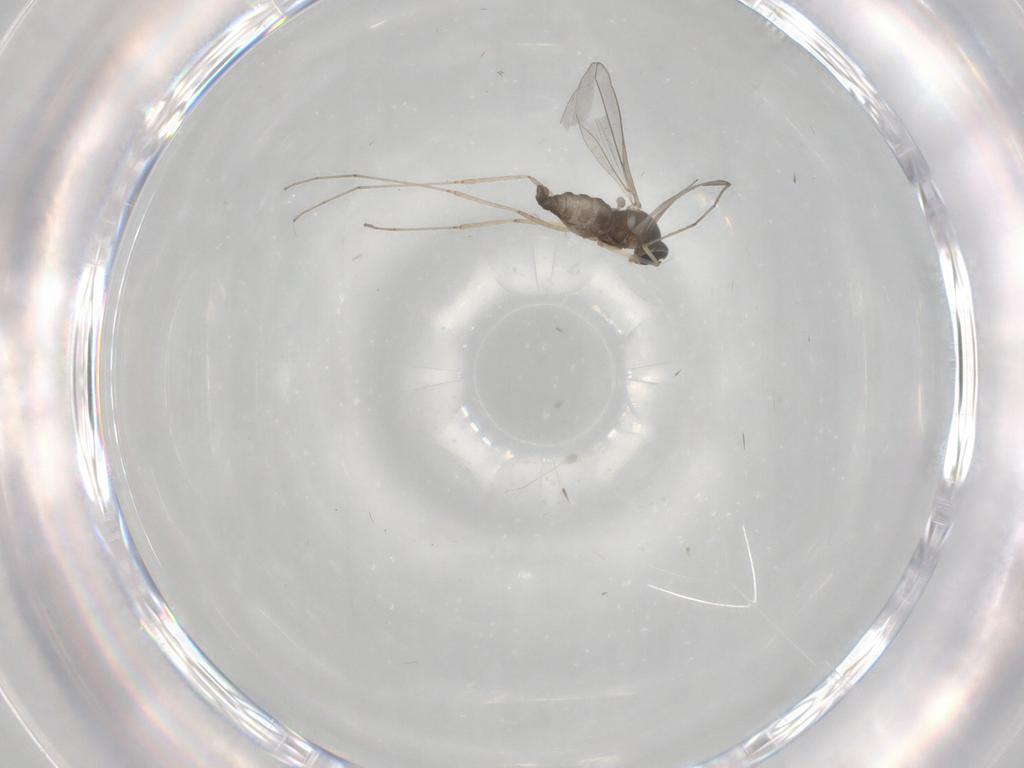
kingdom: Animalia
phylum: Arthropoda
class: Insecta
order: Diptera
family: Cecidomyiidae
